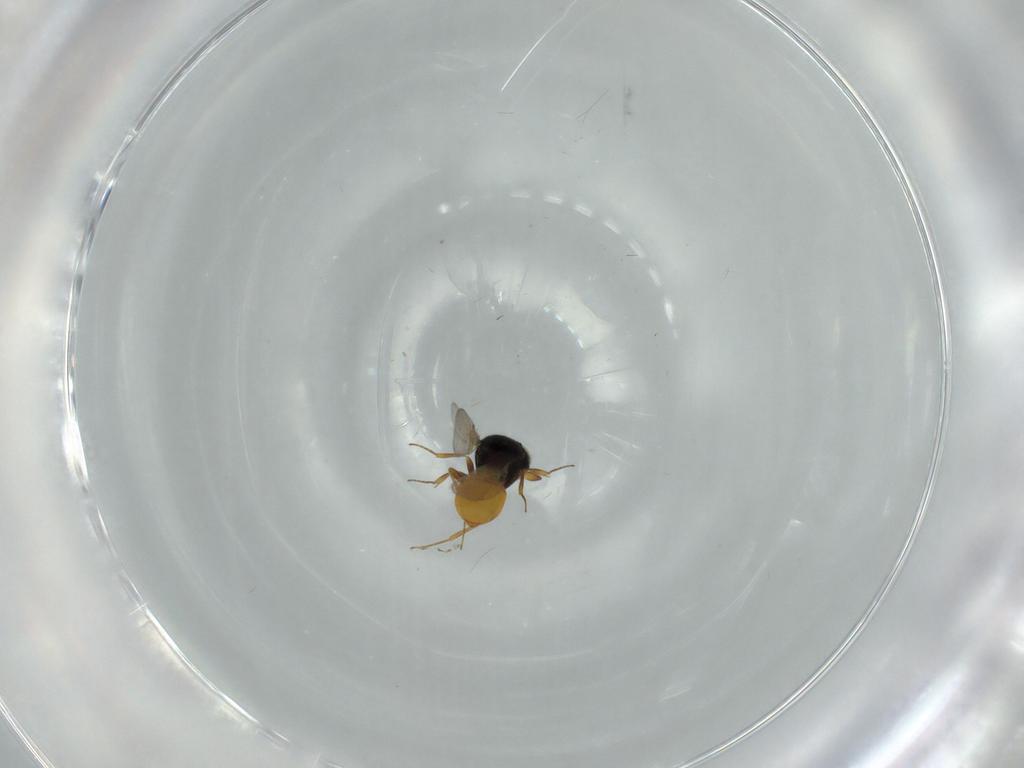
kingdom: Animalia
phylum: Arthropoda
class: Insecta
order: Hymenoptera
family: Scelionidae
